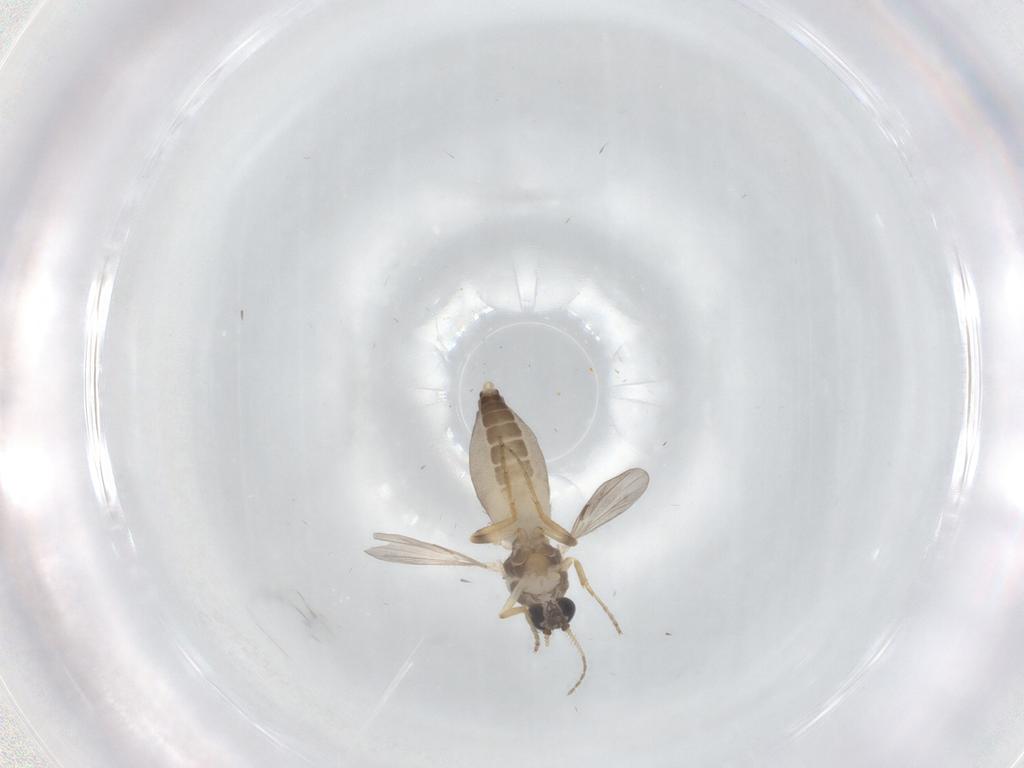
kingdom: Animalia
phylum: Arthropoda
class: Insecta
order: Diptera
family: Ceratopogonidae
